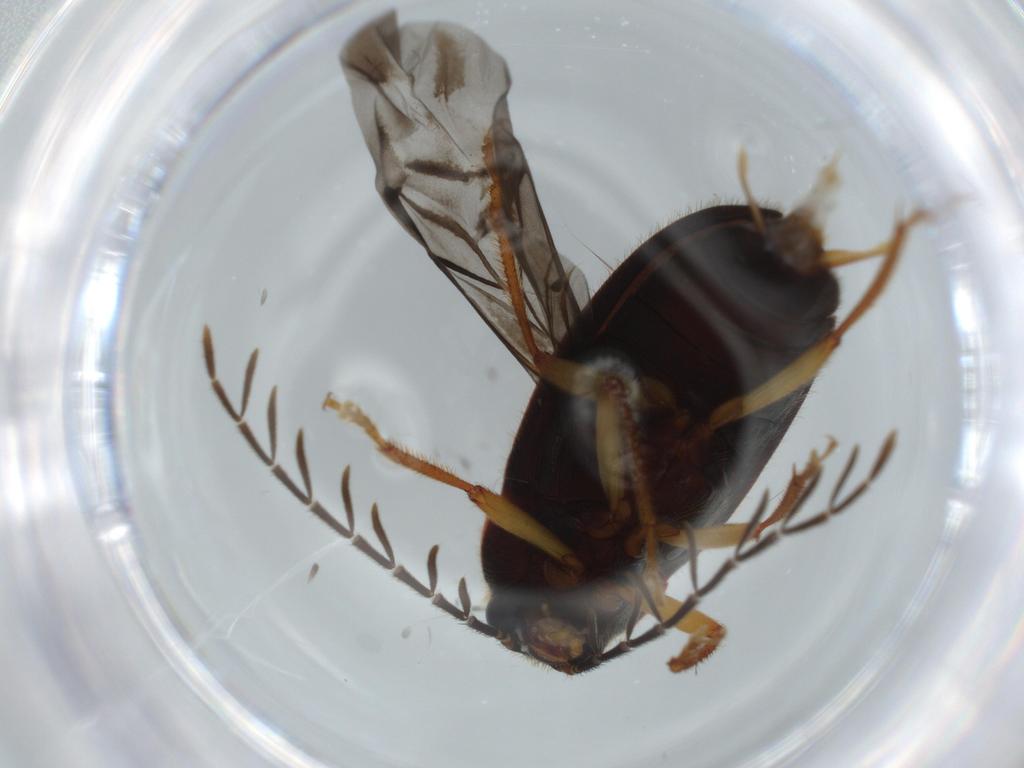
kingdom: Animalia
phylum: Arthropoda
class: Insecta
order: Coleoptera
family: Ptilodactylidae
